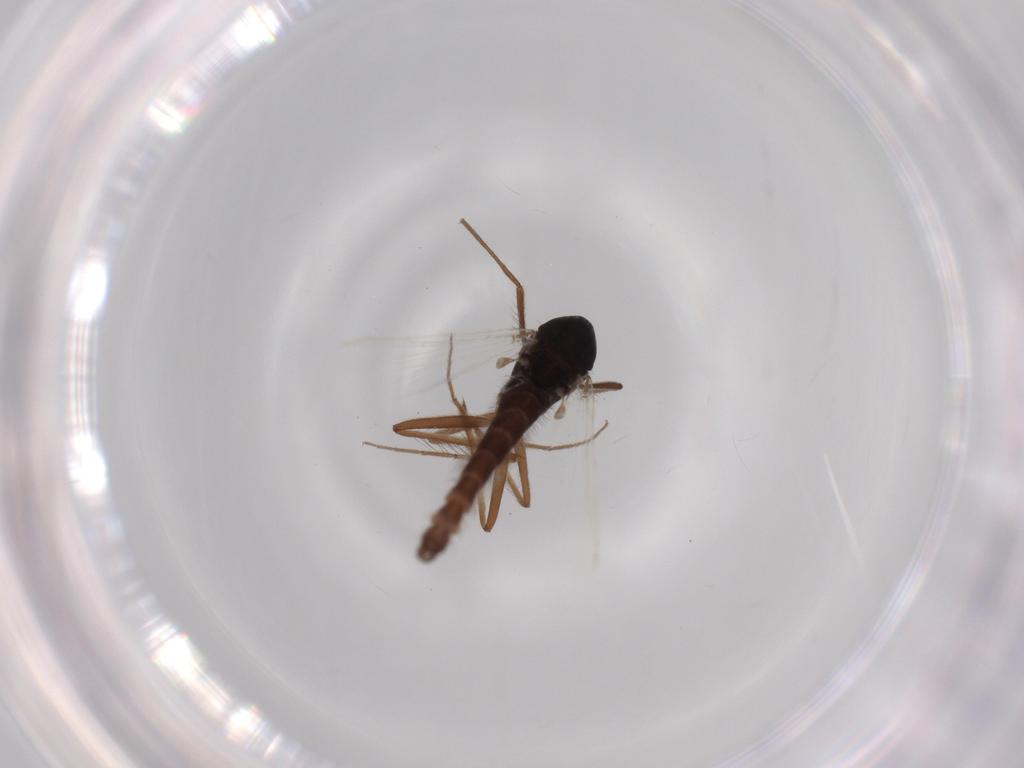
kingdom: Animalia
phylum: Arthropoda
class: Insecta
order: Diptera
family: Cecidomyiidae
